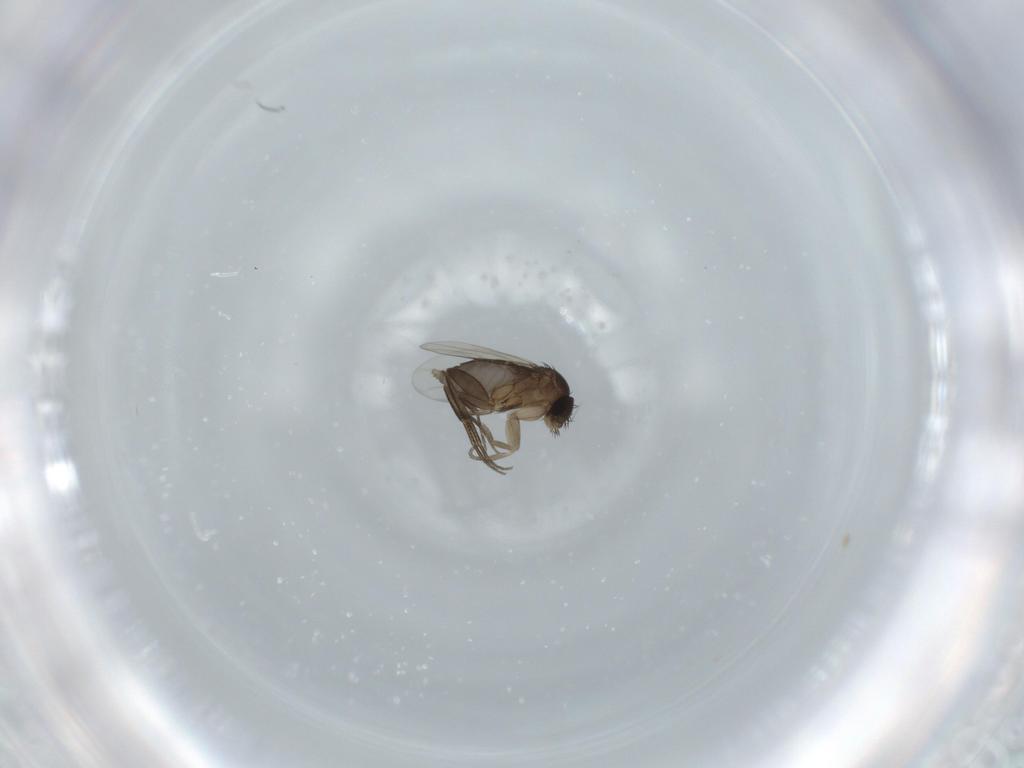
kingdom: Animalia
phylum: Arthropoda
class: Insecta
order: Diptera
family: Phoridae
